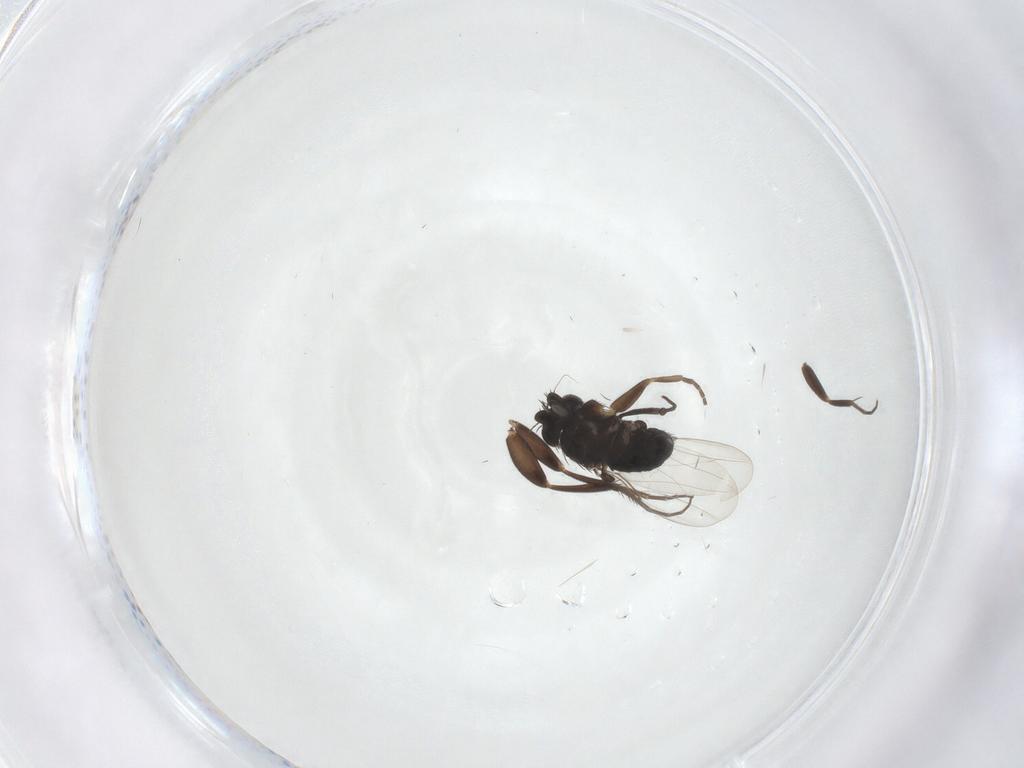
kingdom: Animalia
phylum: Arthropoda
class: Insecta
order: Diptera
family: Phoridae
